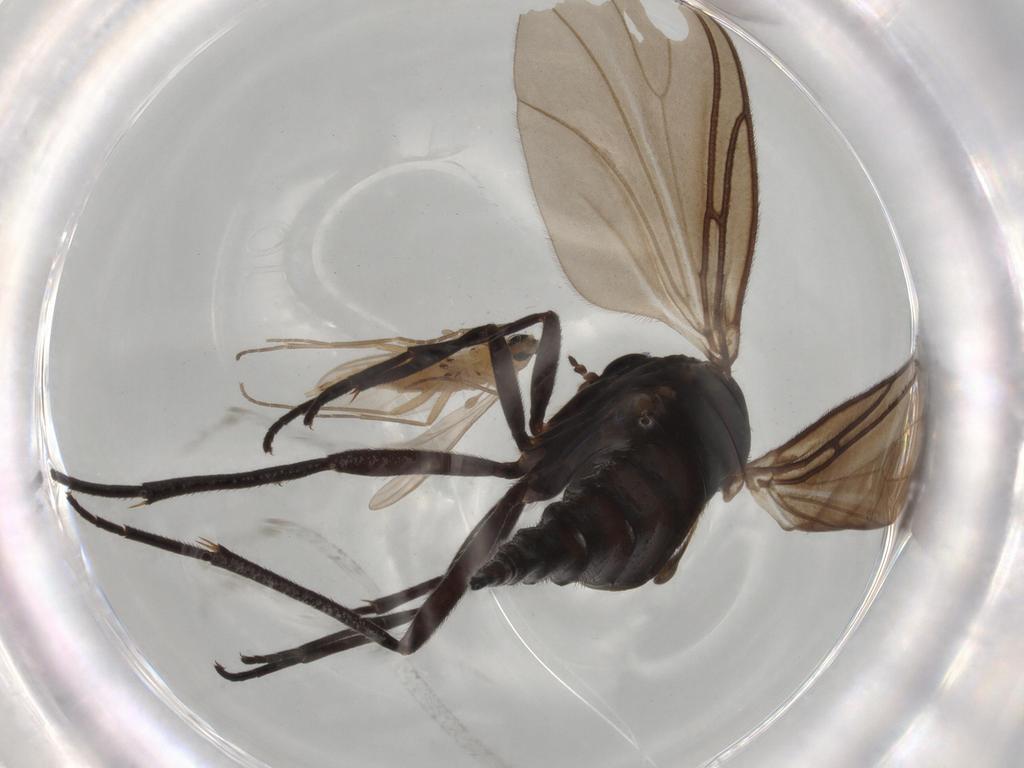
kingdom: Animalia
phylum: Arthropoda
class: Insecta
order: Diptera
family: Sciaridae
